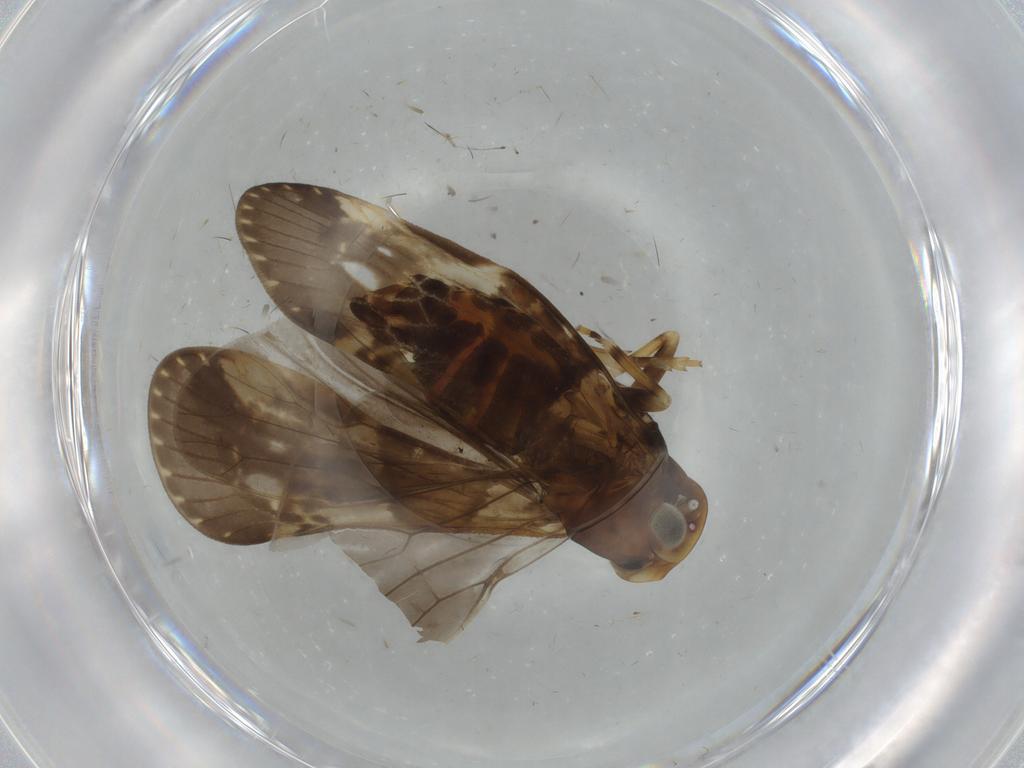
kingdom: Animalia
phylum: Arthropoda
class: Insecta
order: Hemiptera
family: Cixiidae
